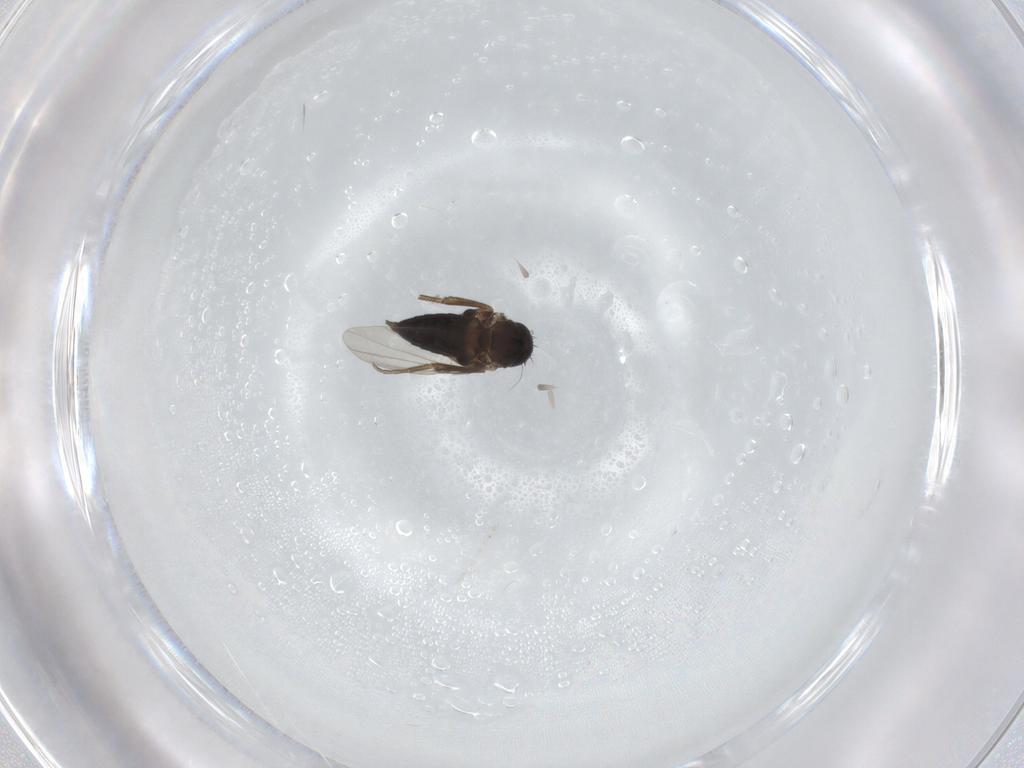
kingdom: Animalia
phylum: Arthropoda
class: Insecta
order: Diptera
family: Phoridae
